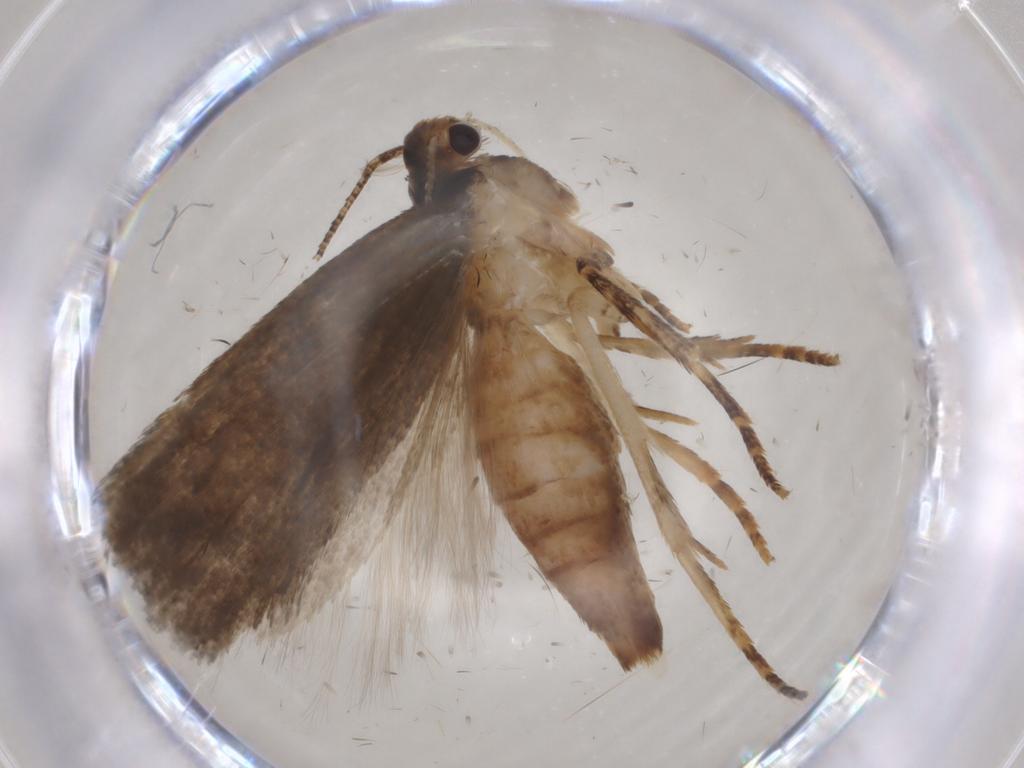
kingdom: Animalia
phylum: Arthropoda
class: Insecta
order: Lepidoptera
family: Gelechiidae
